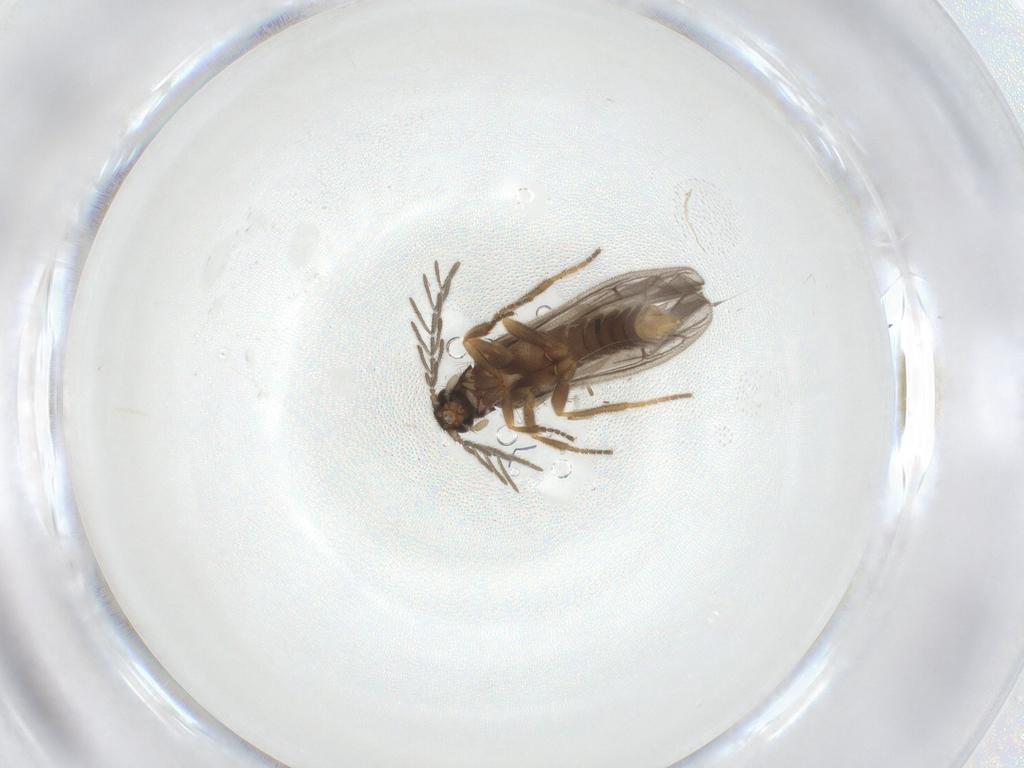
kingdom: Animalia
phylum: Arthropoda
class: Insecta
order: Coleoptera
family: Chrysomelidae
